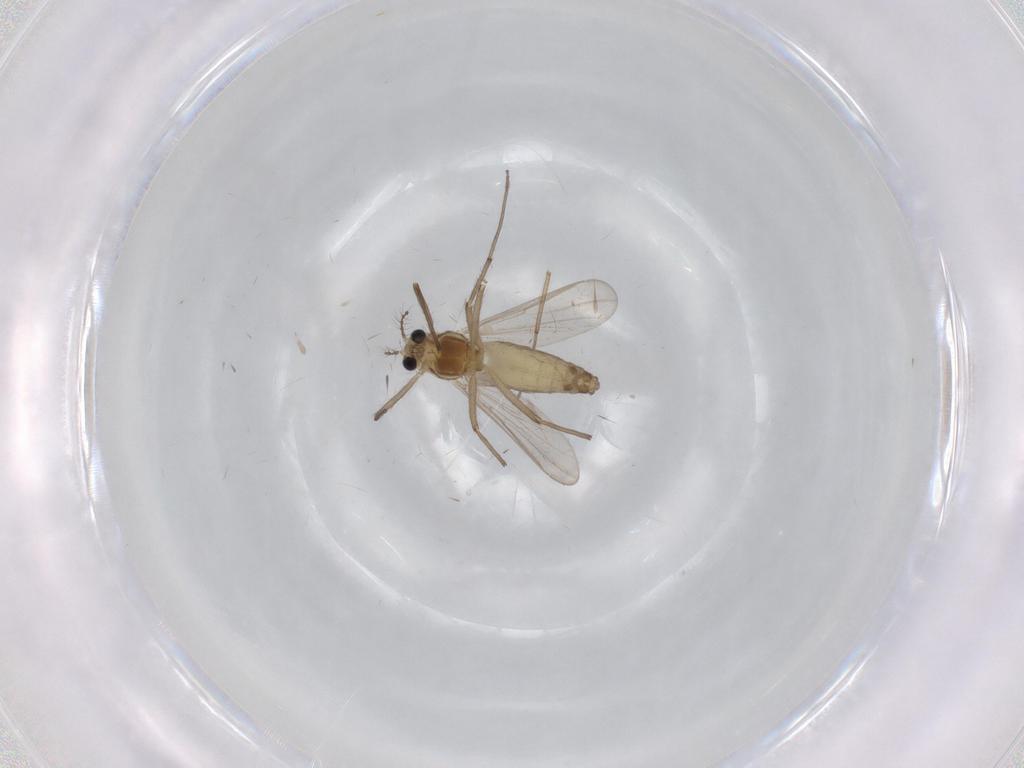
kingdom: Animalia
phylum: Arthropoda
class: Insecta
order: Diptera
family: Chironomidae
